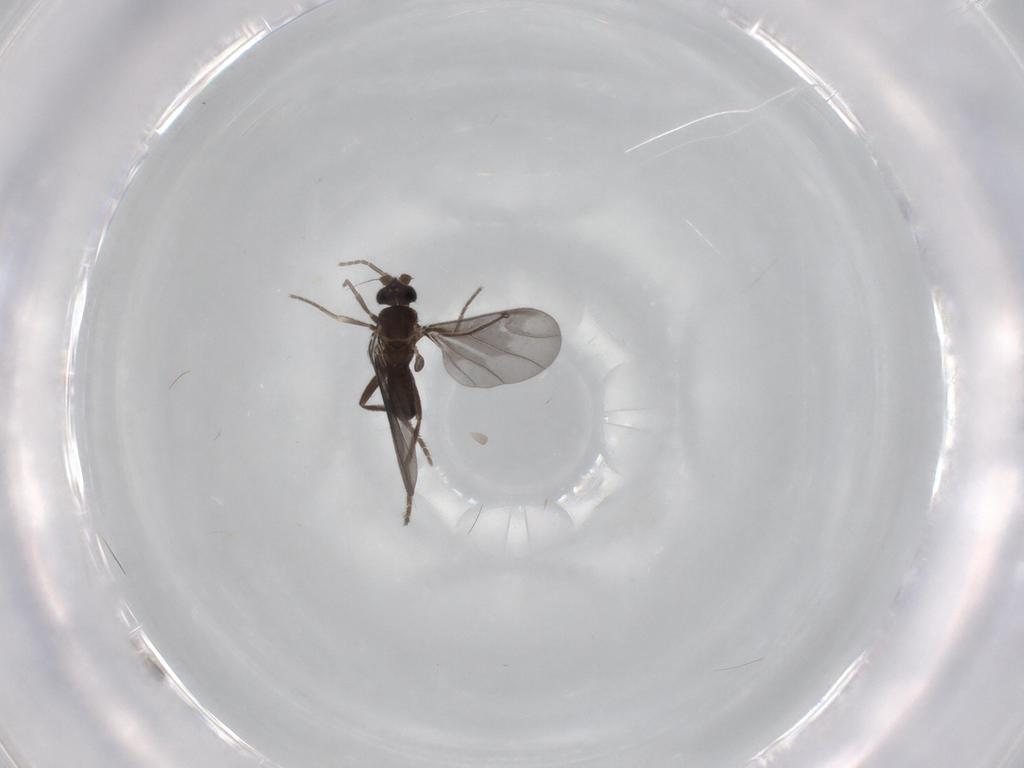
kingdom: Animalia
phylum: Arthropoda
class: Insecta
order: Diptera
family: Phoridae
